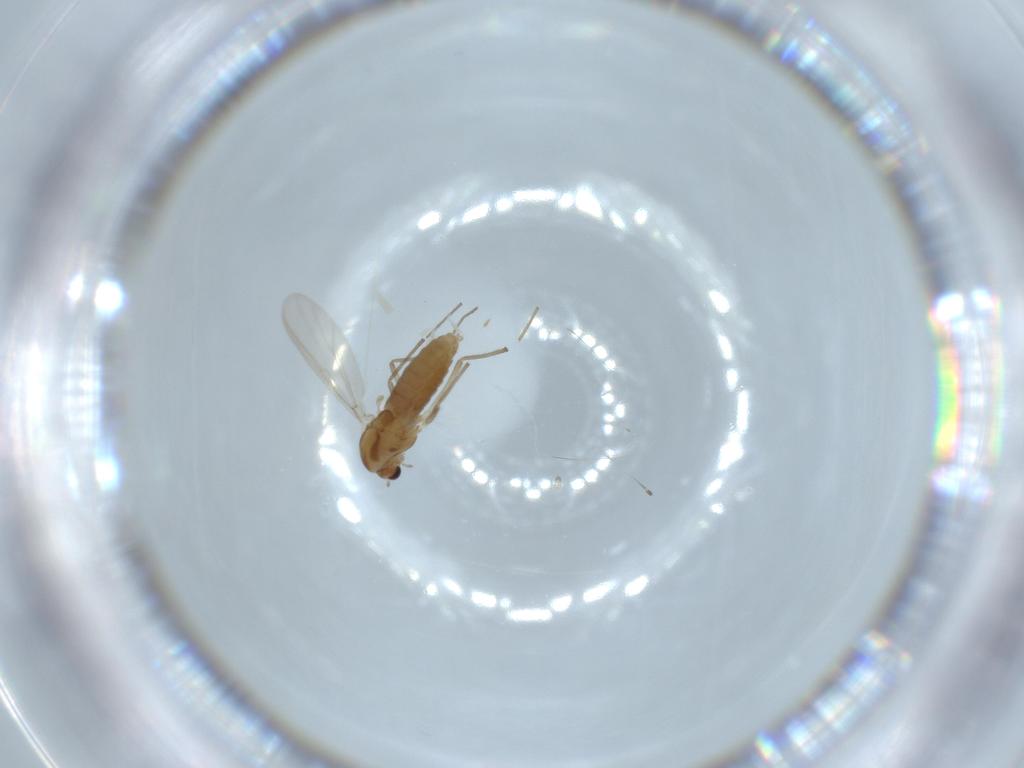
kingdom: Animalia
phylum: Arthropoda
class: Insecta
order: Diptera
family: Chironomidae
